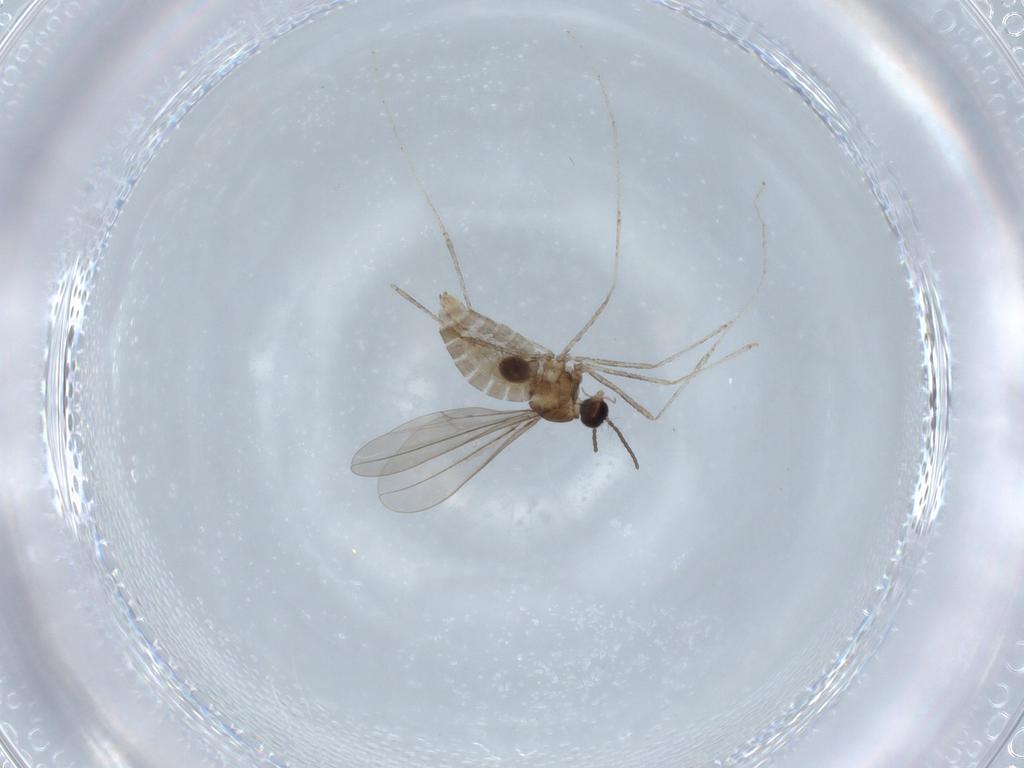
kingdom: Animalia
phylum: Arthropoda
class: Insecta
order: Diptera
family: Cecidomyiidae
